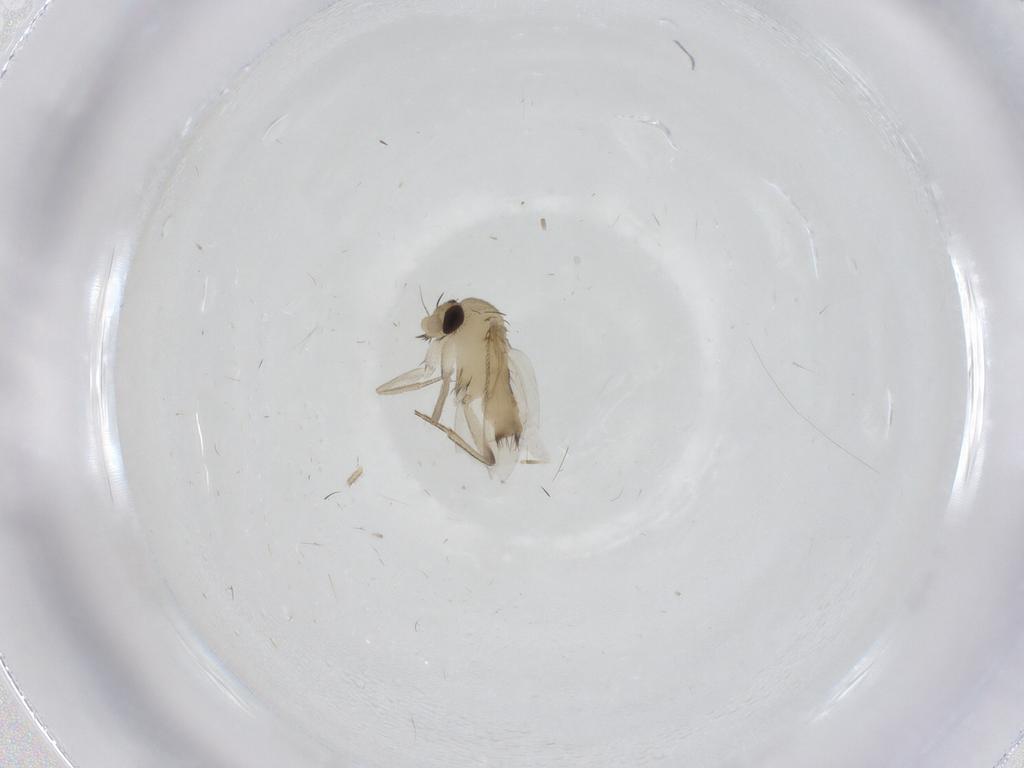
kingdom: Animalia
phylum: Arthropoda
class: Insecta
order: Diptera
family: Phoridae
